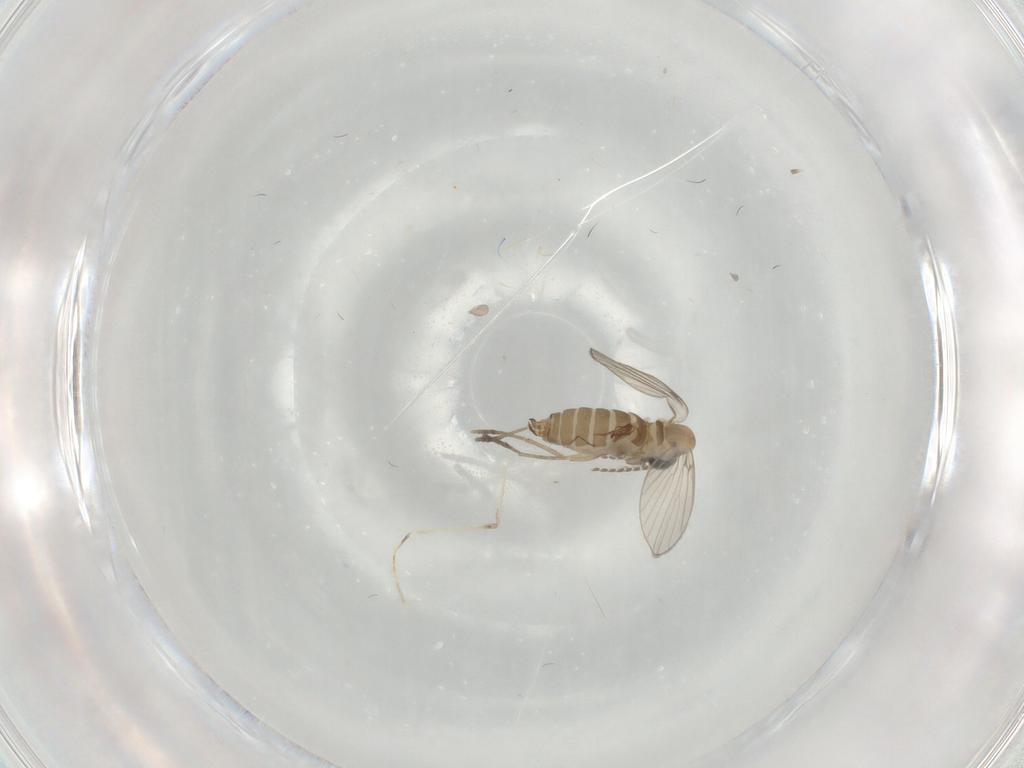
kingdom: Animalia
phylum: Arthropoda
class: Insecta
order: Diptera
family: Psychodidae
